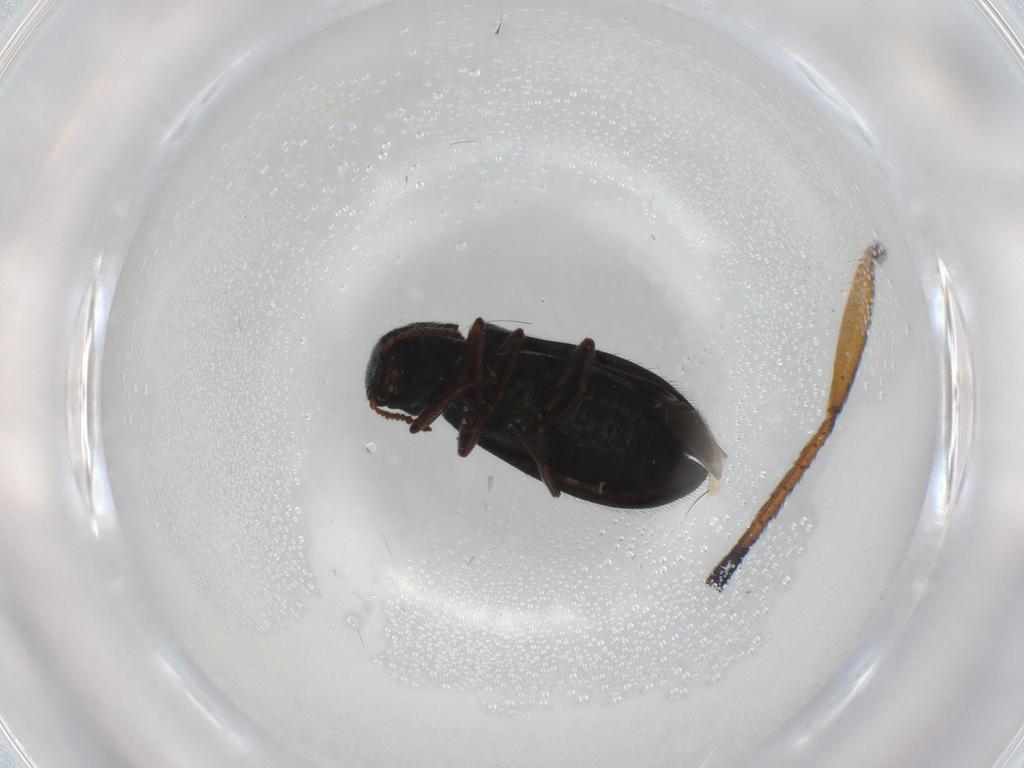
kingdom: Animalia
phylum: Arthropoda
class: Insecta
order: Coleoptera
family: Melyridae
